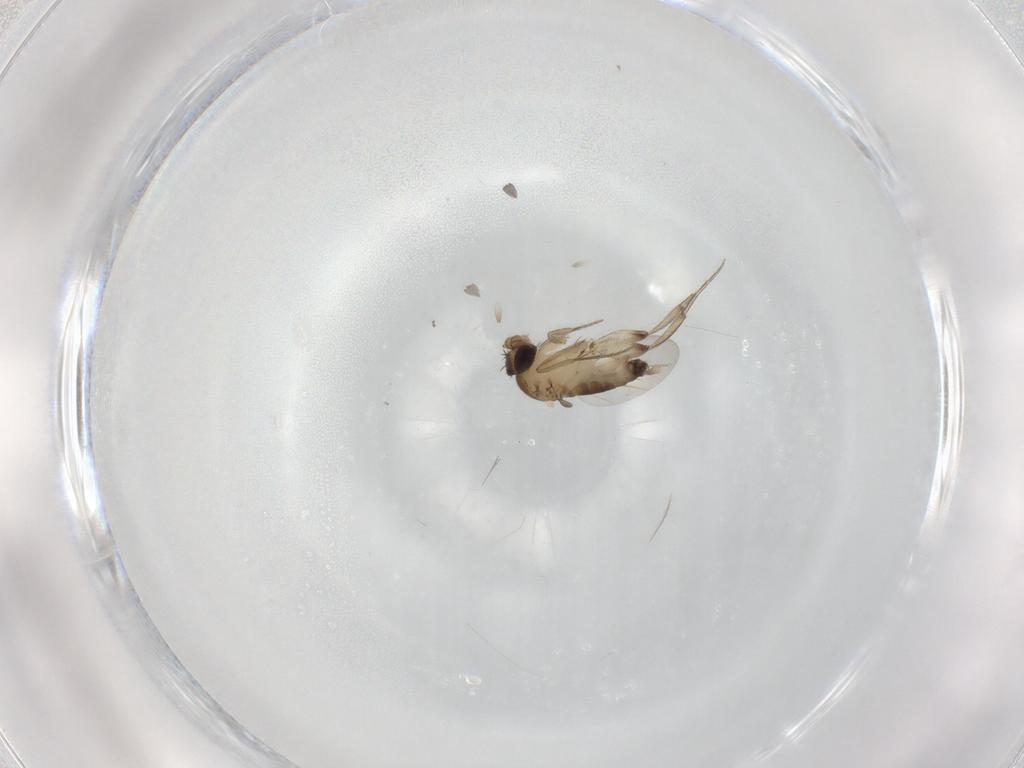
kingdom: Animalia
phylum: Arthropoda
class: Insecta
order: Diptera
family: Phoridae
